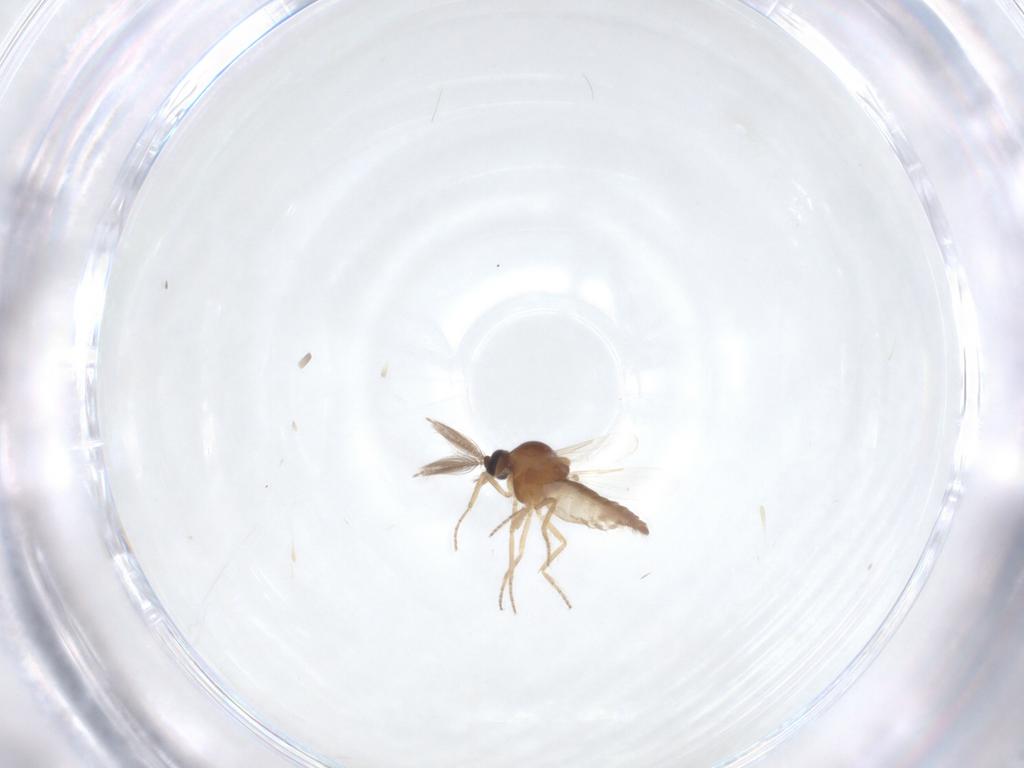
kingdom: Animalia
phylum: Arthropoda
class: Insecta
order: Diptera
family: Ceratopogonidae
